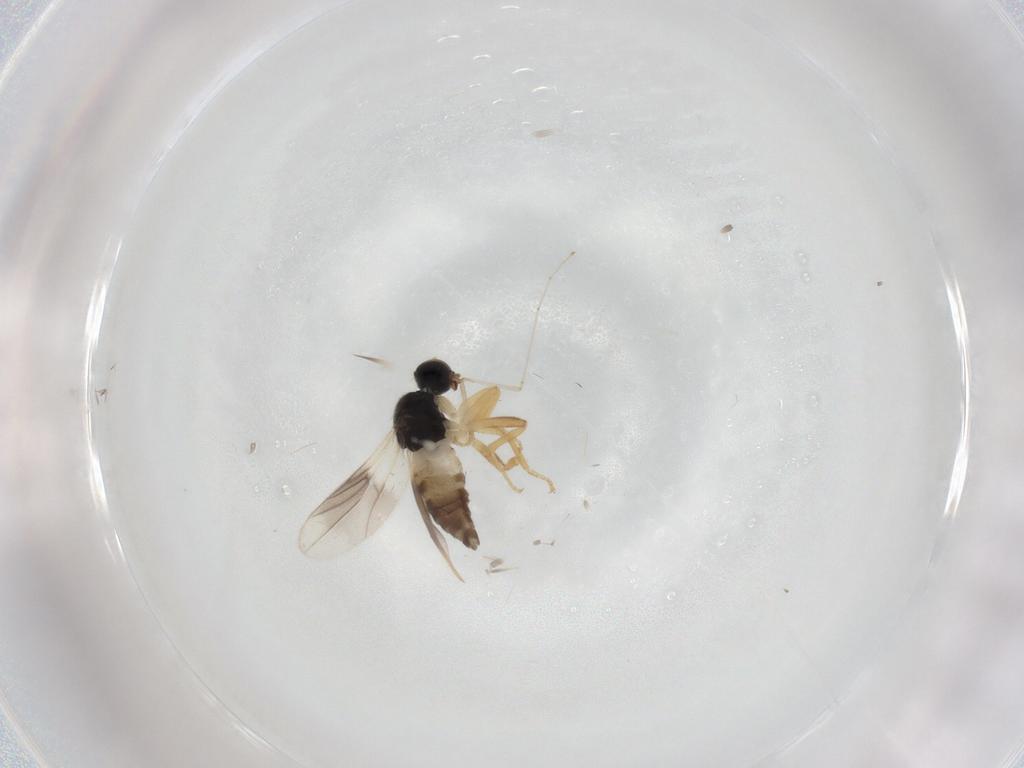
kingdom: Animalia
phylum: Arthropoda
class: Insecta
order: Diptera
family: Hybotidae
